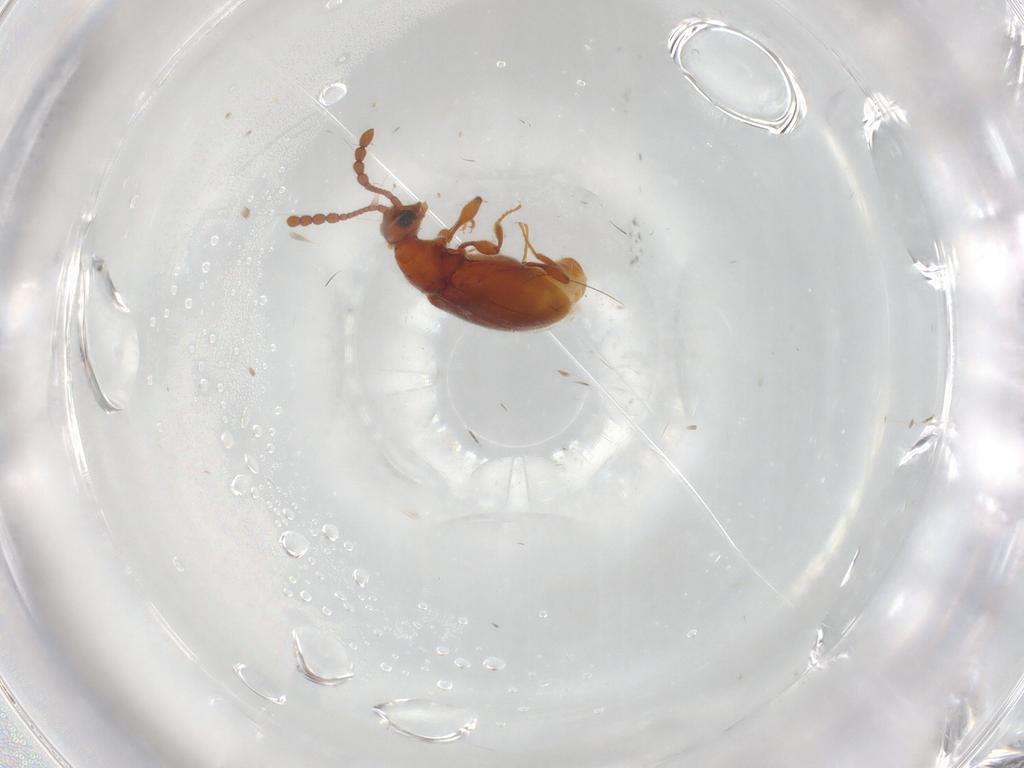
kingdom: Animalia
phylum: Arthropoda
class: Insecta
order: Coleoptera
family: Staphylinidae
